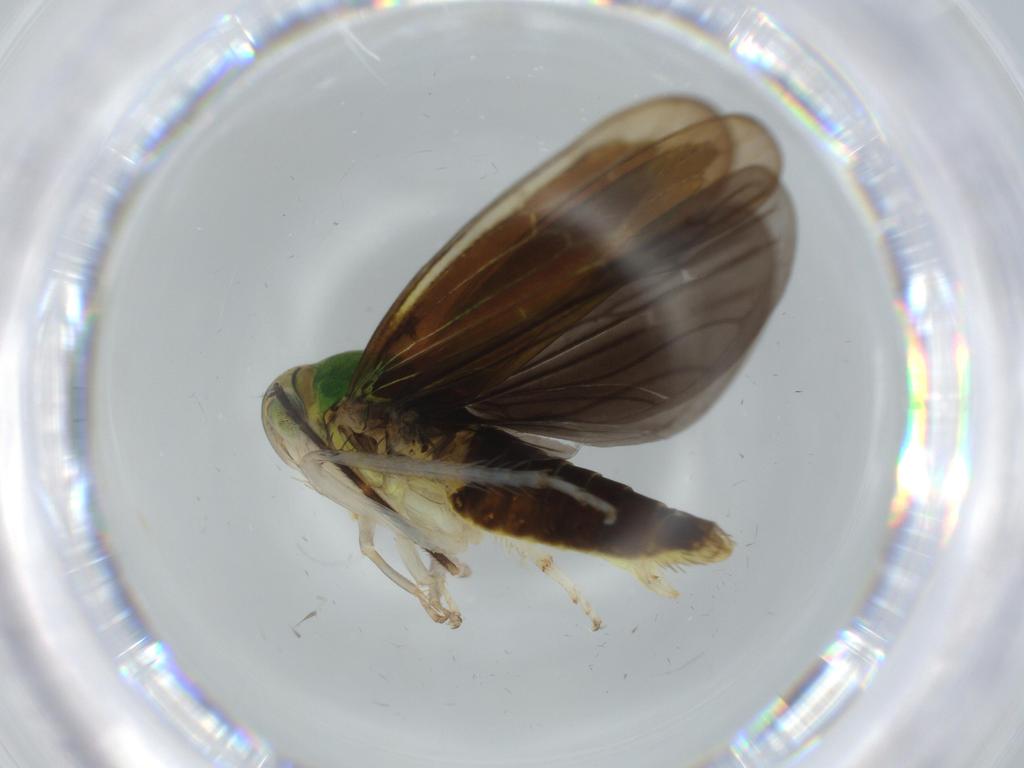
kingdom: Animalia
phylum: Arthropoda
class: Insecta
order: Hemiptera
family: Cicadellidae
